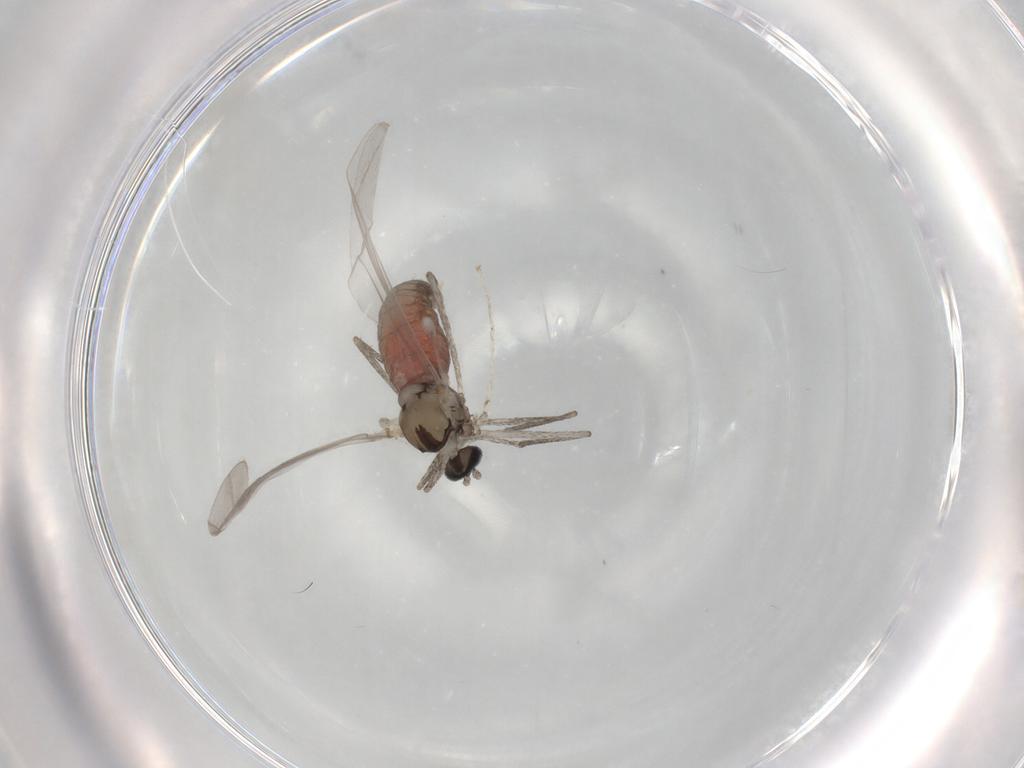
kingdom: Animalia
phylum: Arthropoda
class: Insecta
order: Diptera
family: Cecidomyiidae
